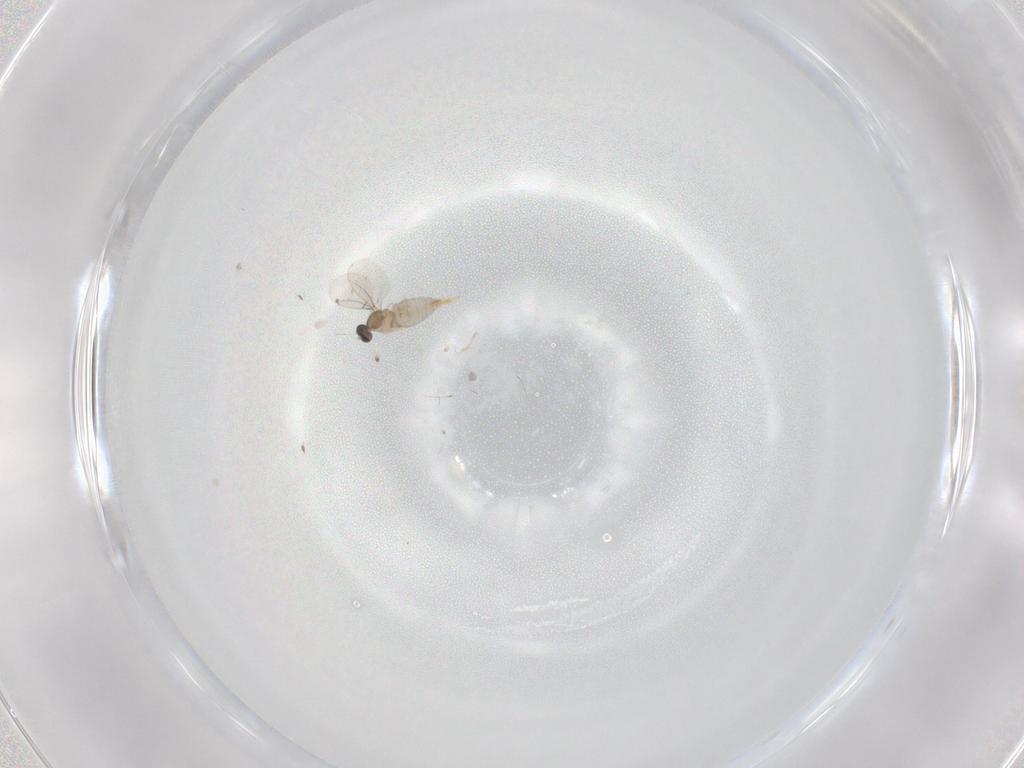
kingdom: Animalia
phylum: Arthropoda
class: Insecta
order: Diptera
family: Cecidomyiidae
